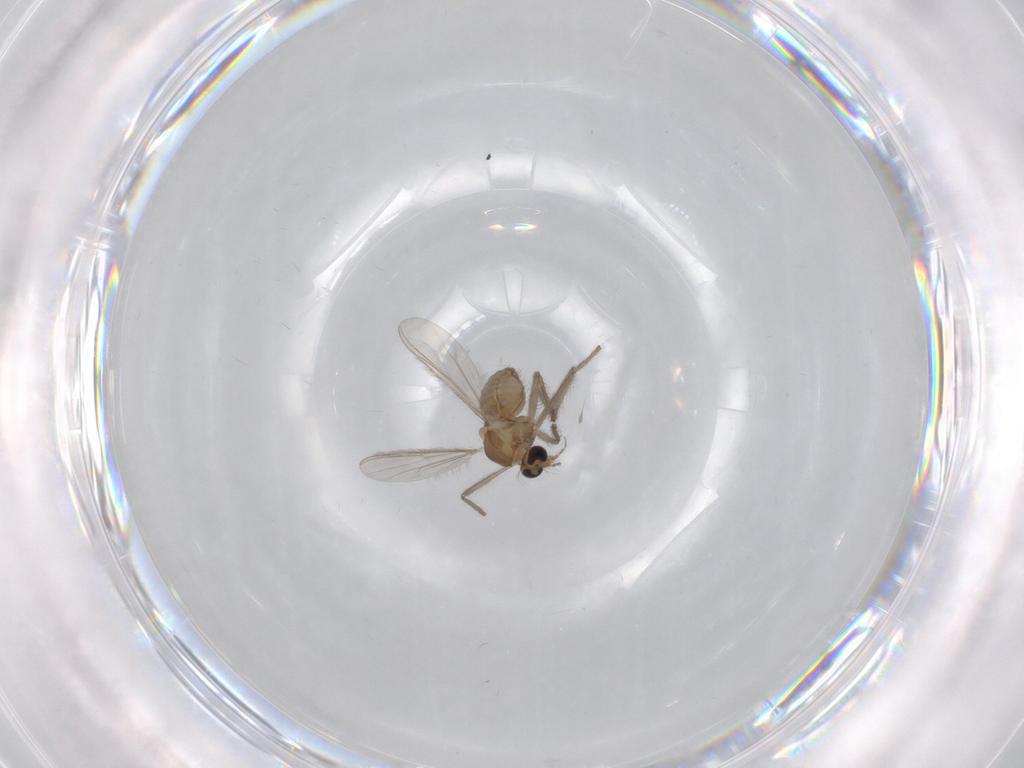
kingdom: Animalia
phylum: Arthropoda
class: Insecta
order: Diptera
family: Chironomidae
